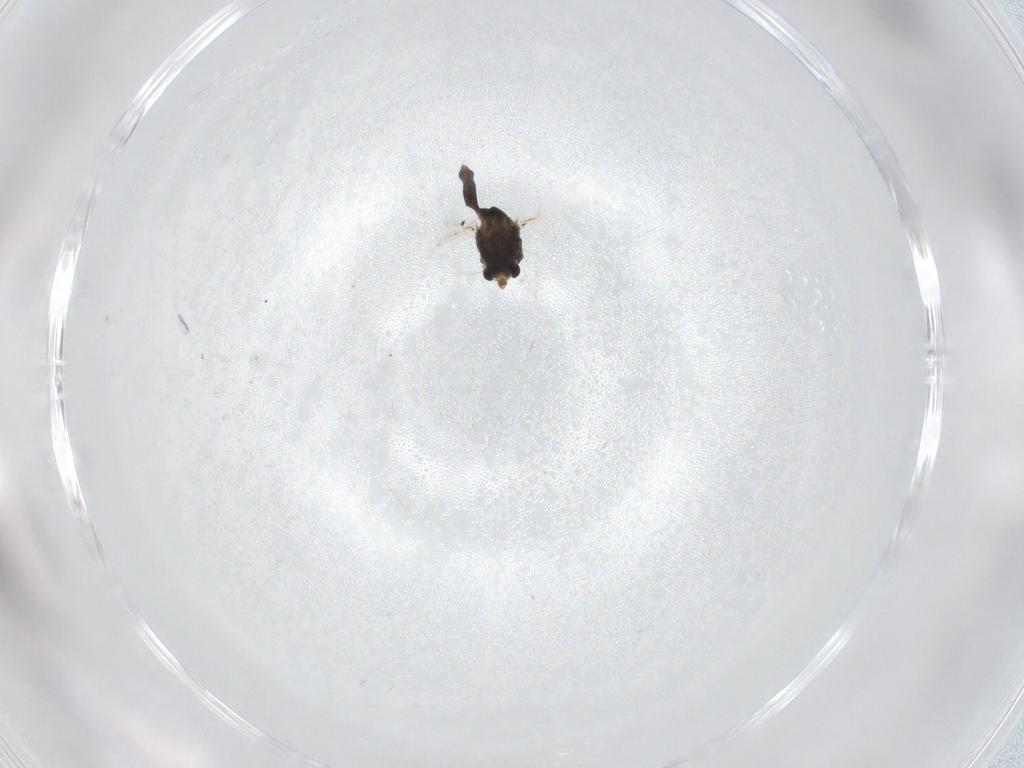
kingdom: Animalia
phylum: Arthropoda
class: Insecta
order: Diptera
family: Chironomidae
